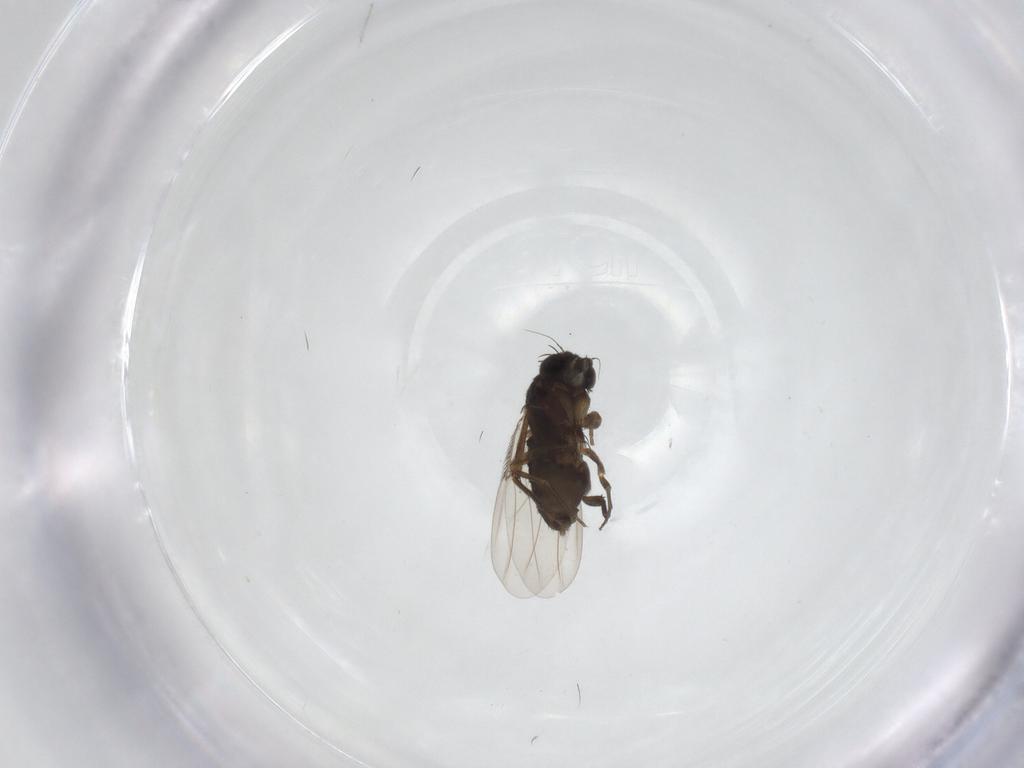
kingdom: Animalia
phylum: Arthropoda
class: Insecta
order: Diptera
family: Phoridae
